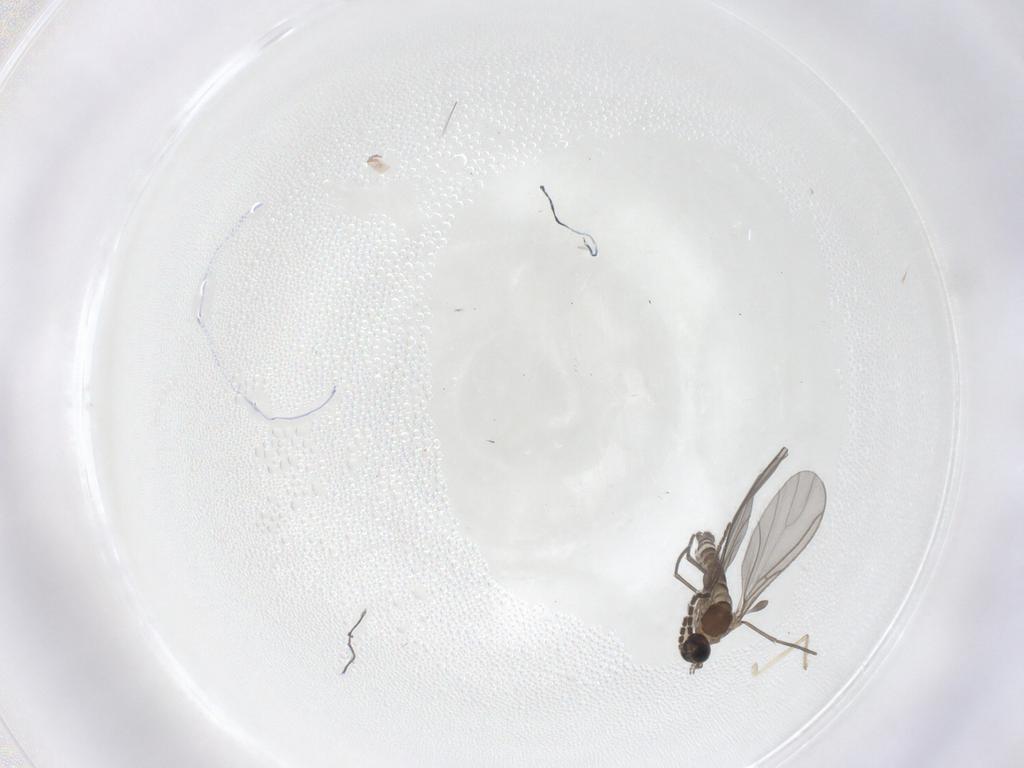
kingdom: Animalia
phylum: Arthropoda
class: Insecta
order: Diptera
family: Sciaridae
